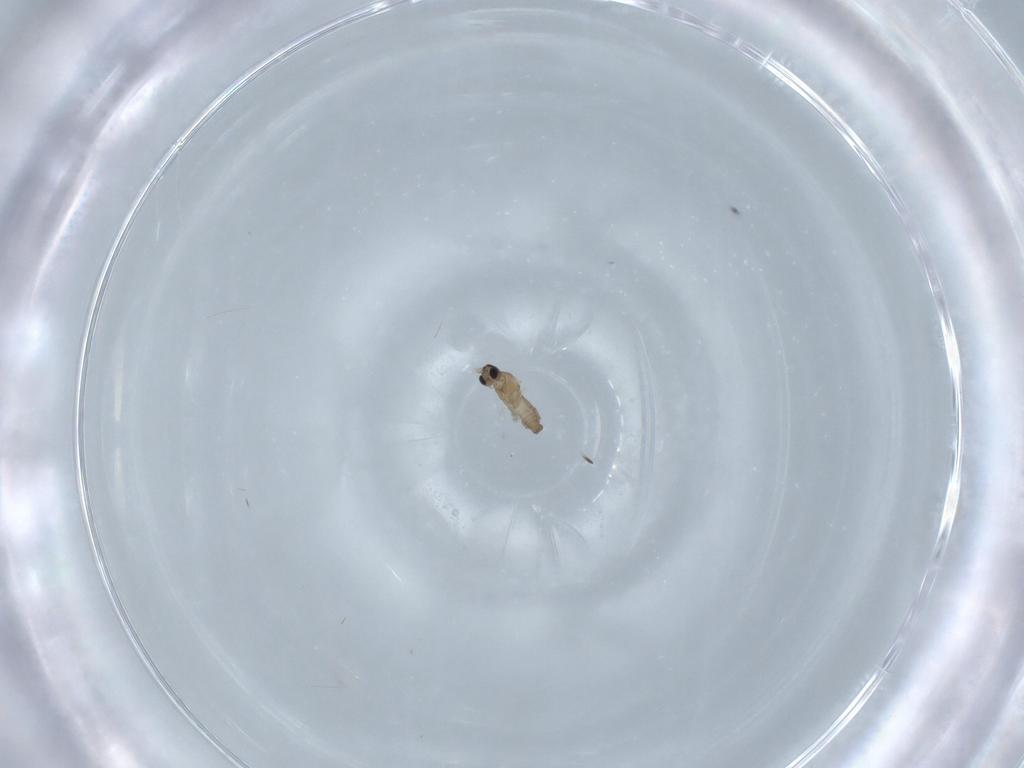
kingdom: Animalia
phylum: Arthropoda
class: Insecta
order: Diptera
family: Cecidomyiidae
